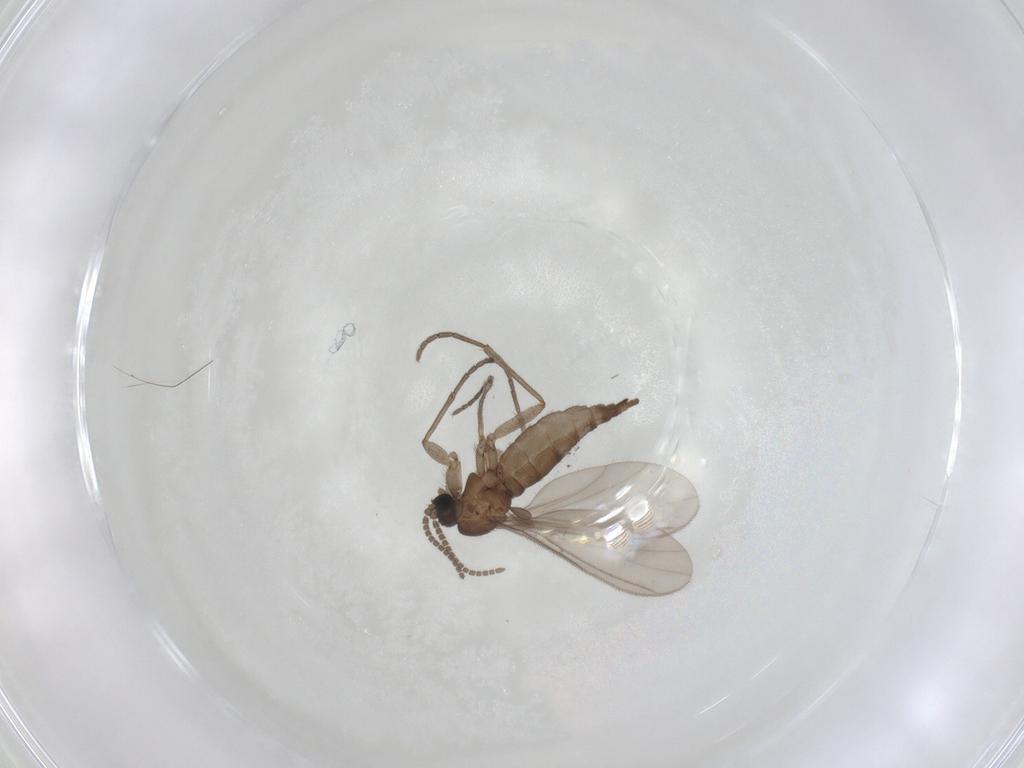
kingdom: Animalia
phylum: Arthropoda
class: Insecta
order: Diptera
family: Sciaridae
